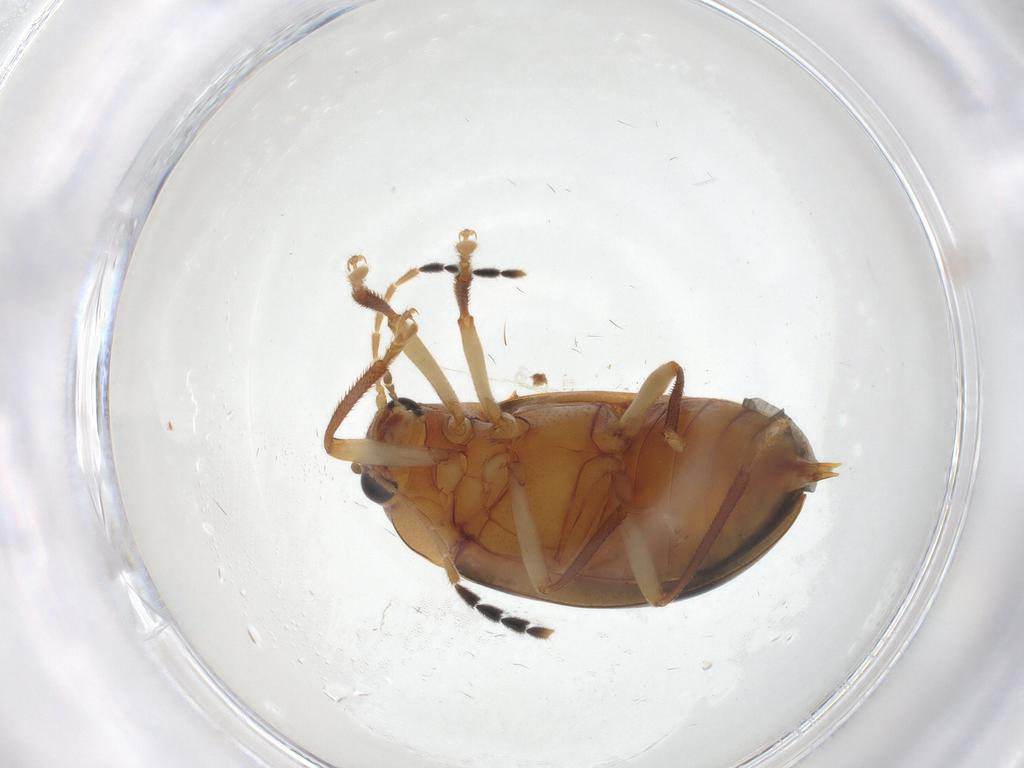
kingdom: Animalia
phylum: Arthropoda
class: Insecta
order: Coleoptera
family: Ptilodactylidae
